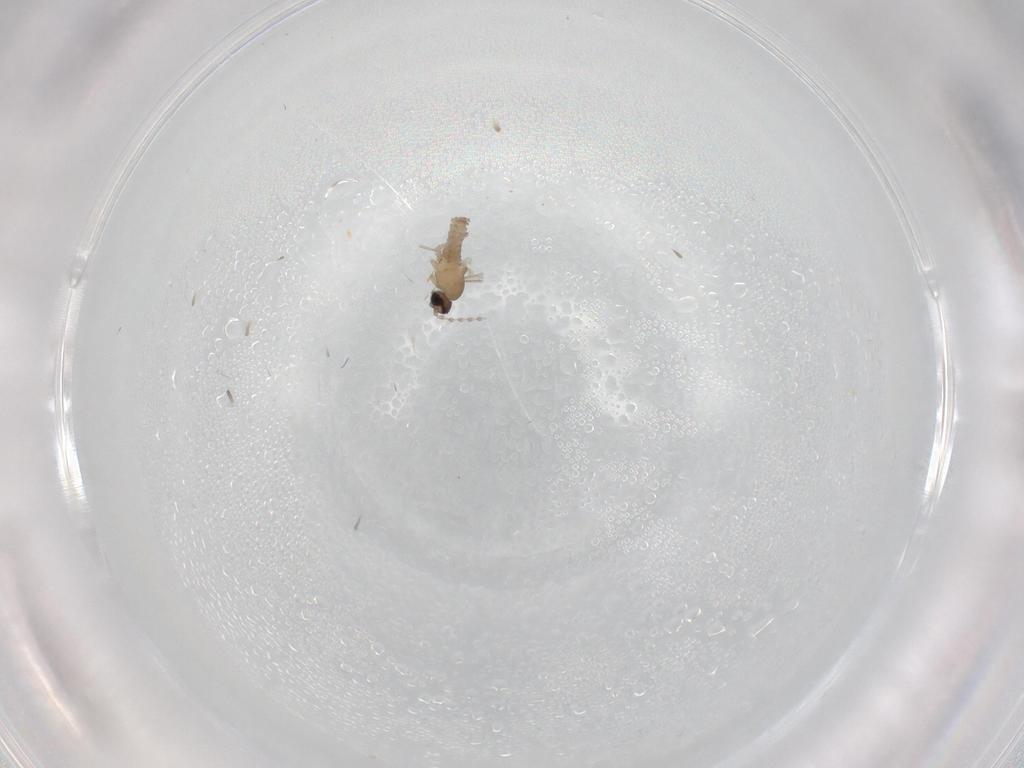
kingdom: Animalia
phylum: Arthropoda
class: Insecta
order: Diptera
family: Cecidomyiidae
